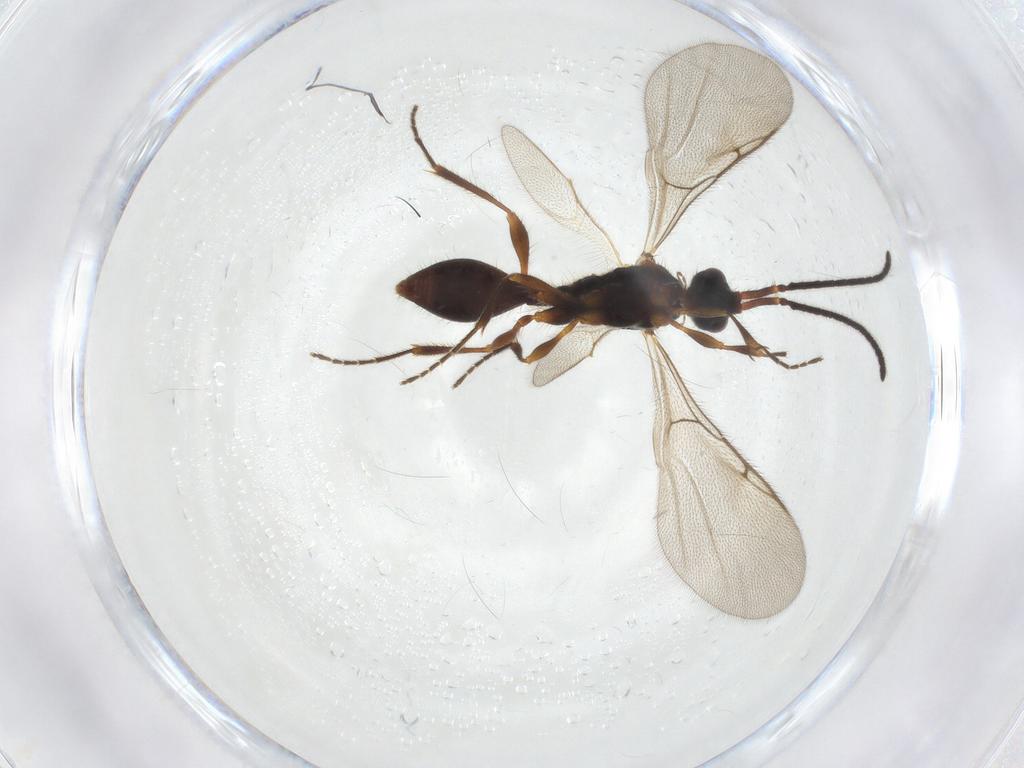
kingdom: Animalia
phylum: Arthropoda
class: Insecta
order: Hymenoptera
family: Diapriidae
